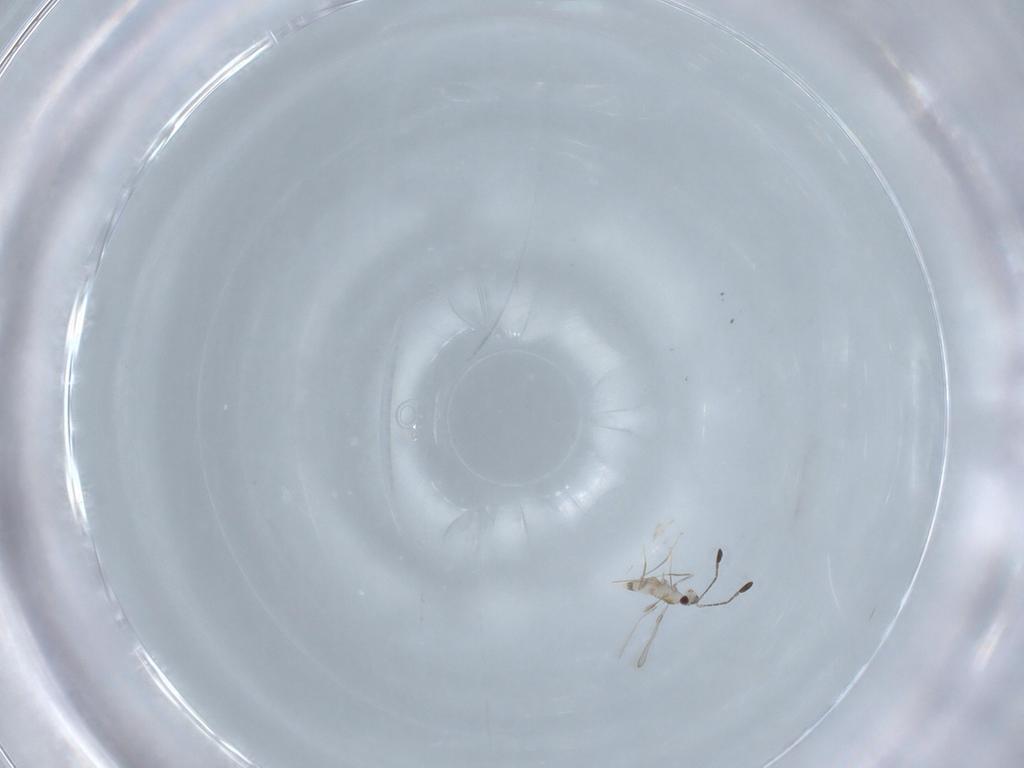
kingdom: Animalia
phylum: Arthropoda
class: Insecta
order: Hymenoptera
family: Mymaridae
